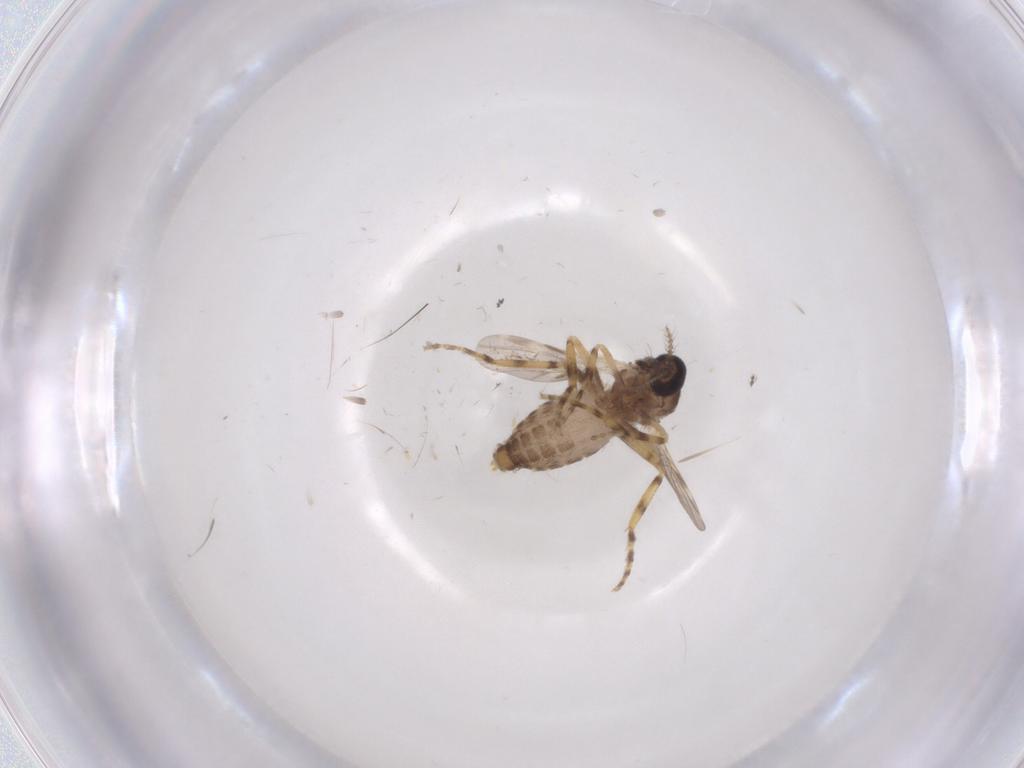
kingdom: Animalia
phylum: Arthropoda
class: Insecta
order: Diptera
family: Ceratopogonidae
